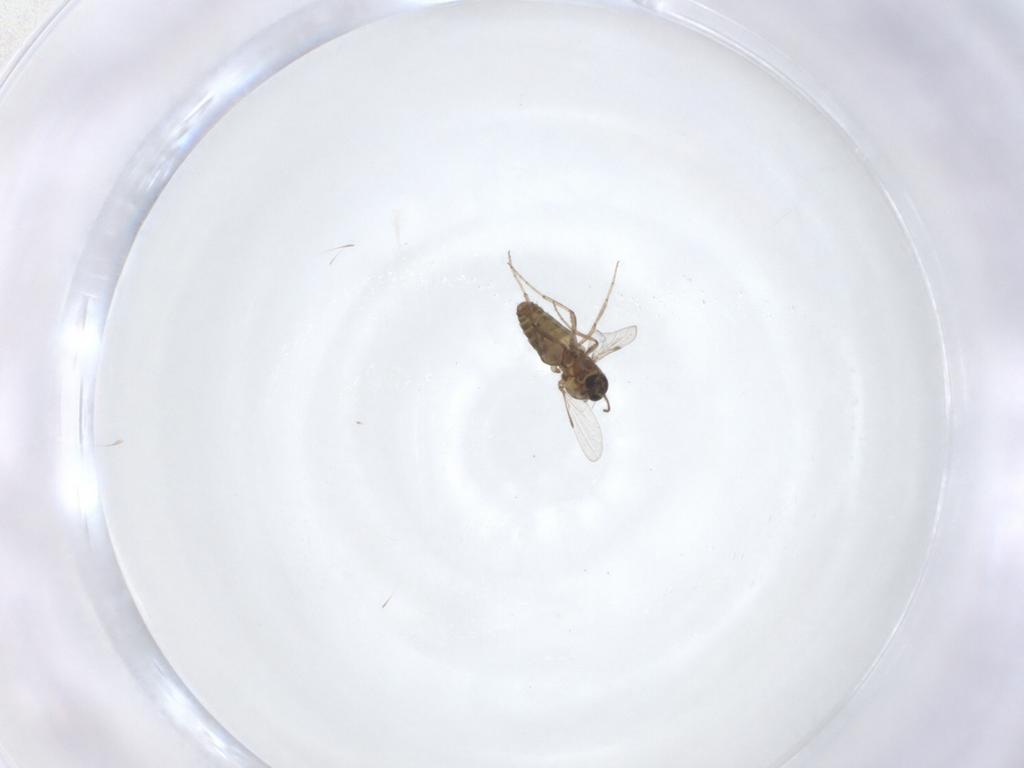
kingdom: Animalia
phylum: Arthropoda
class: Insecta
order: Diptera
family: Ceratopogonidae
